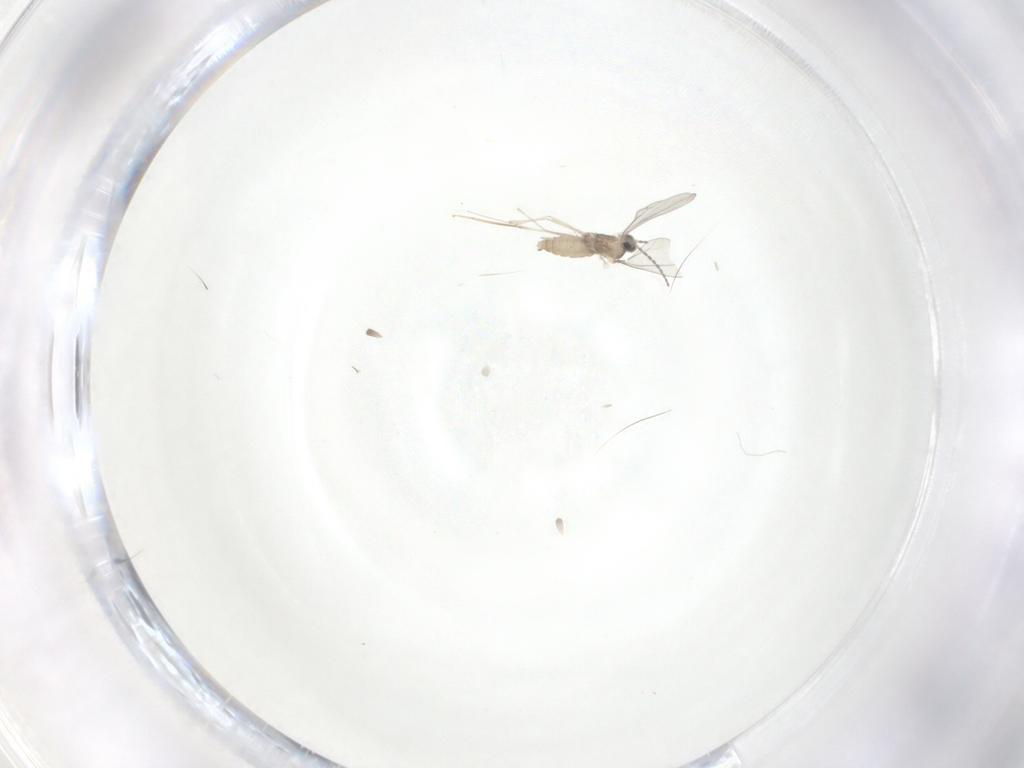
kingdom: Animalia
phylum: Arthropoda
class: Insecta
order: Diptera
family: Cecidomyiidae
